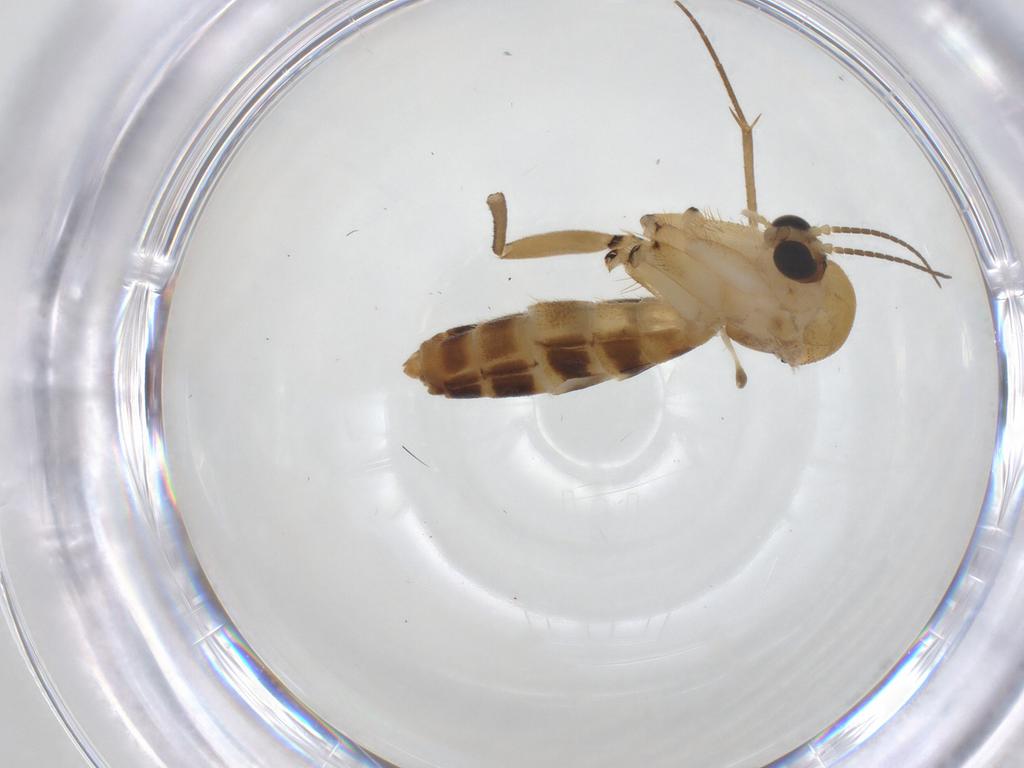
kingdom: Animalia
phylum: Arthropoda
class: Insecta
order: Diptera
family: Mycetophilidae
